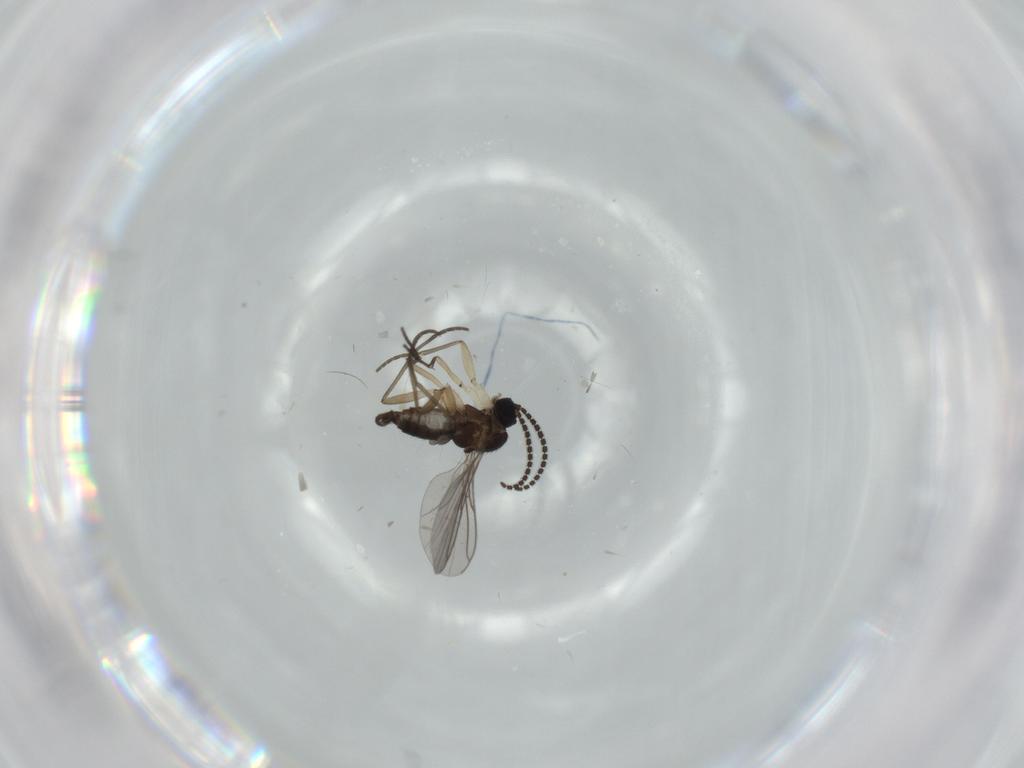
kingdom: Animalia
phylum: Arthropoda
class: Insecta
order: Diptera
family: Sciaridae
